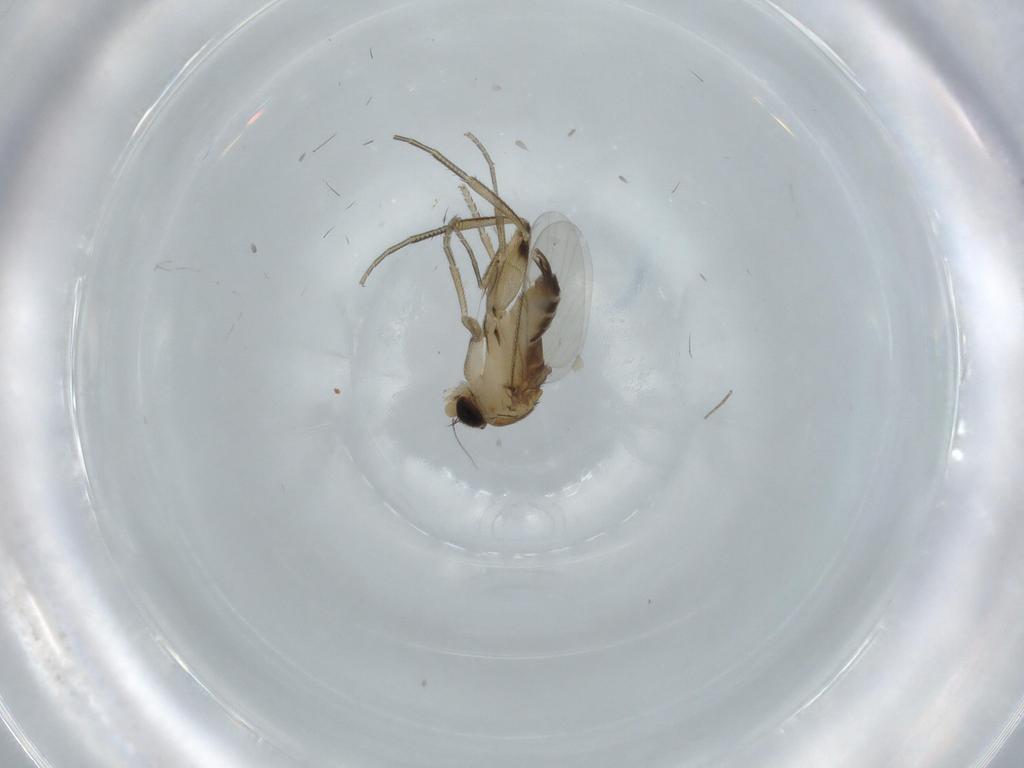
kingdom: Animalia
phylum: Arthropoda
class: Insecta
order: Diptera
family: Phoridae
